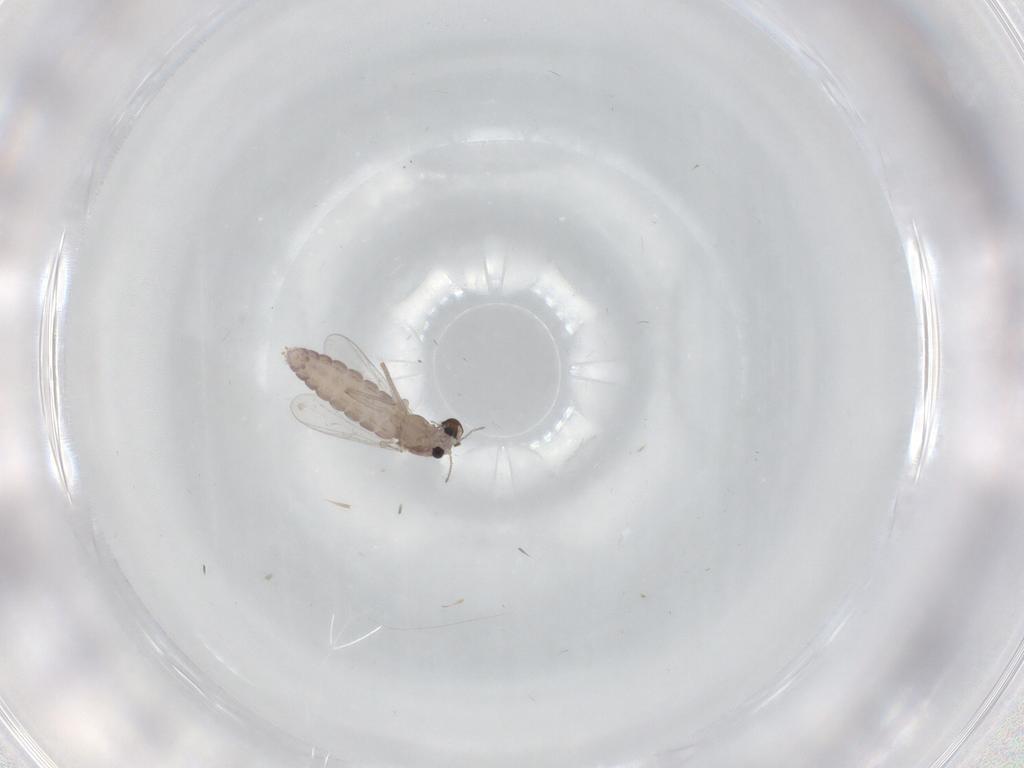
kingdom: Animalia
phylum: Arthropoda
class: Insecta
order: Diptera
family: Chironomidae
